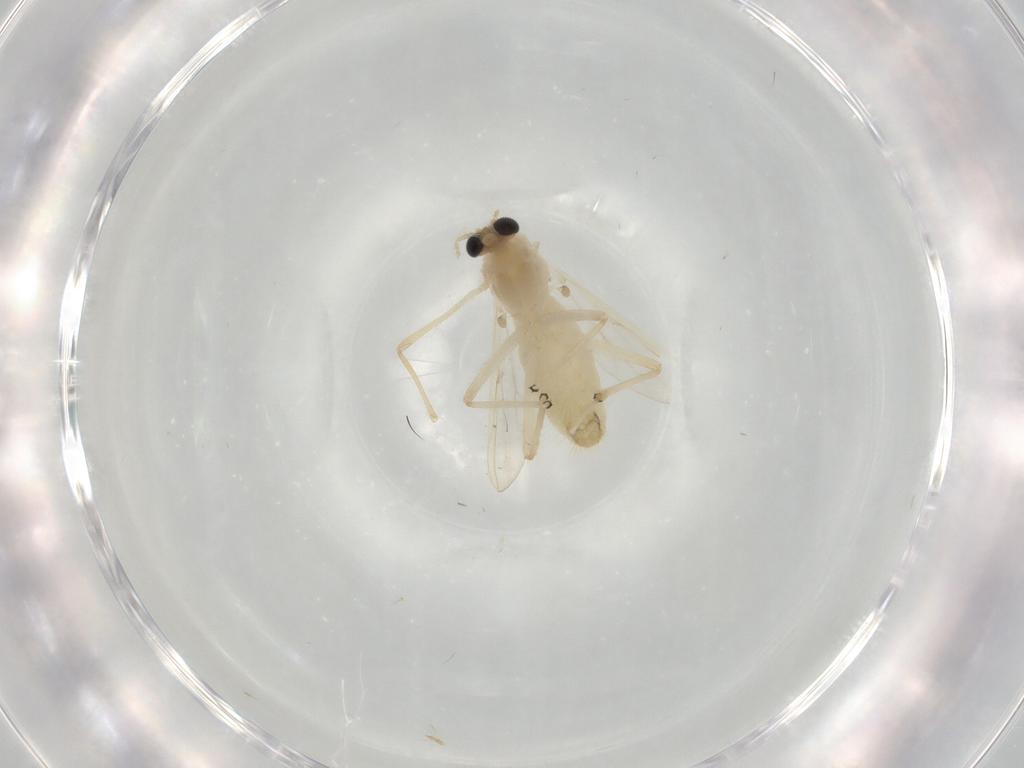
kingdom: Animalia
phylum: Arthropoda
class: Insecta
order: Diptera
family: Chironomidae
